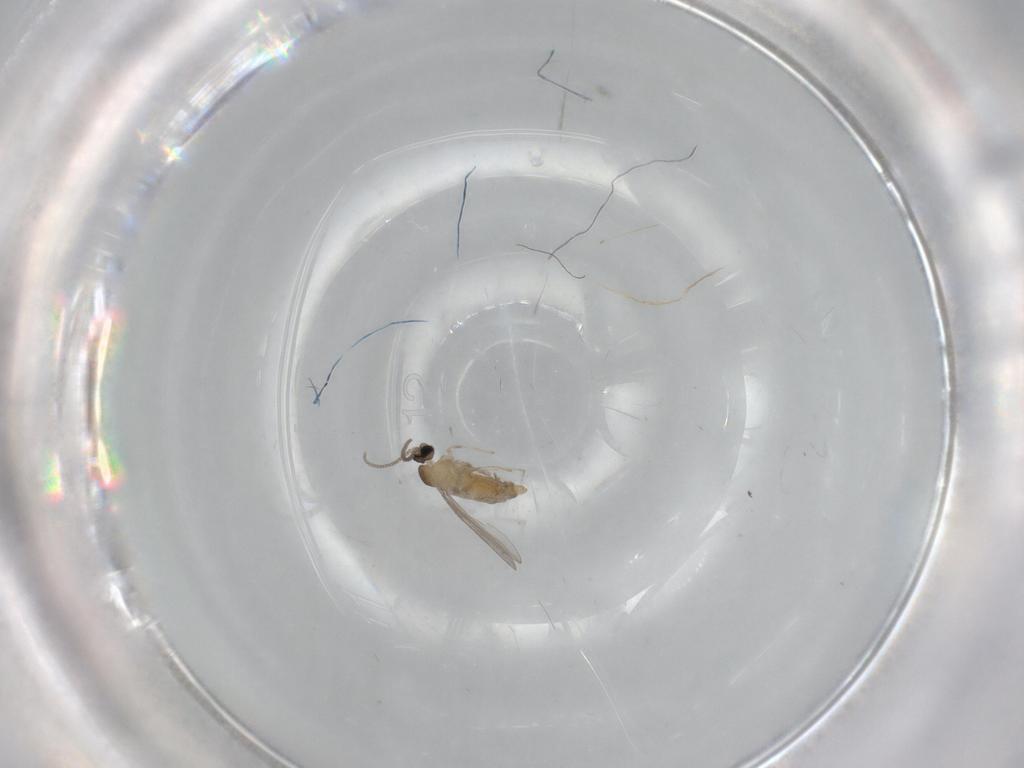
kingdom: Animalia
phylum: Arthropoda
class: Insecta
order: Diptera
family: Cecidomyiidae
